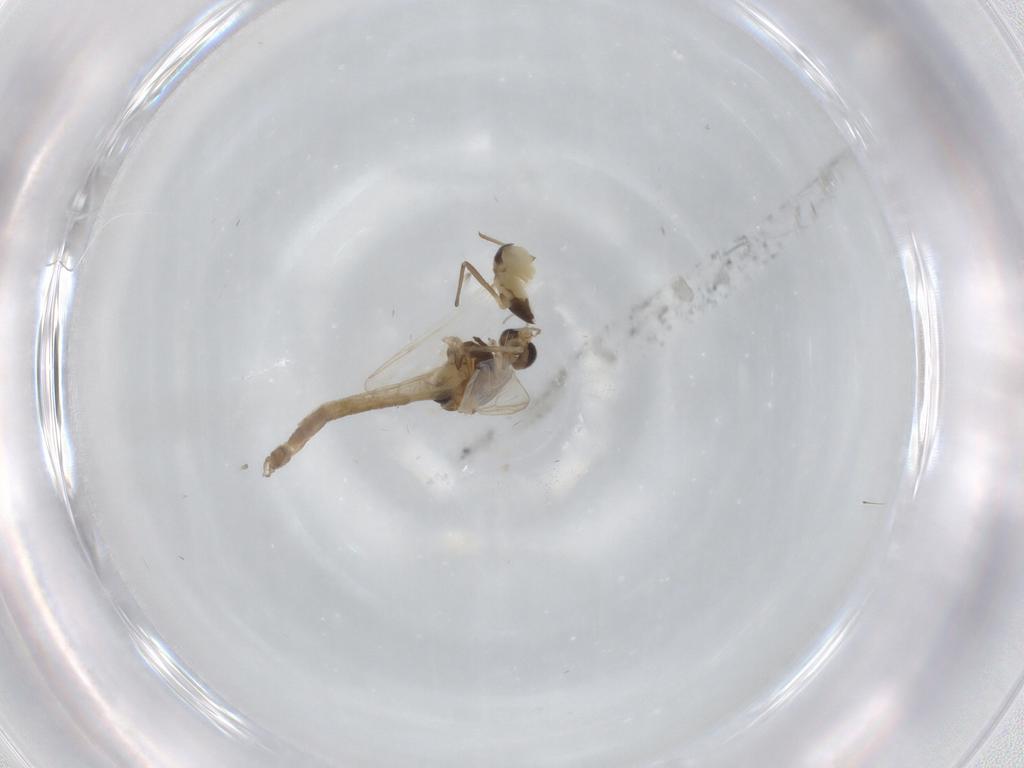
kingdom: Animalia
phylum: Arthropoda
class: Insecta
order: Diptera
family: Chironomidae
